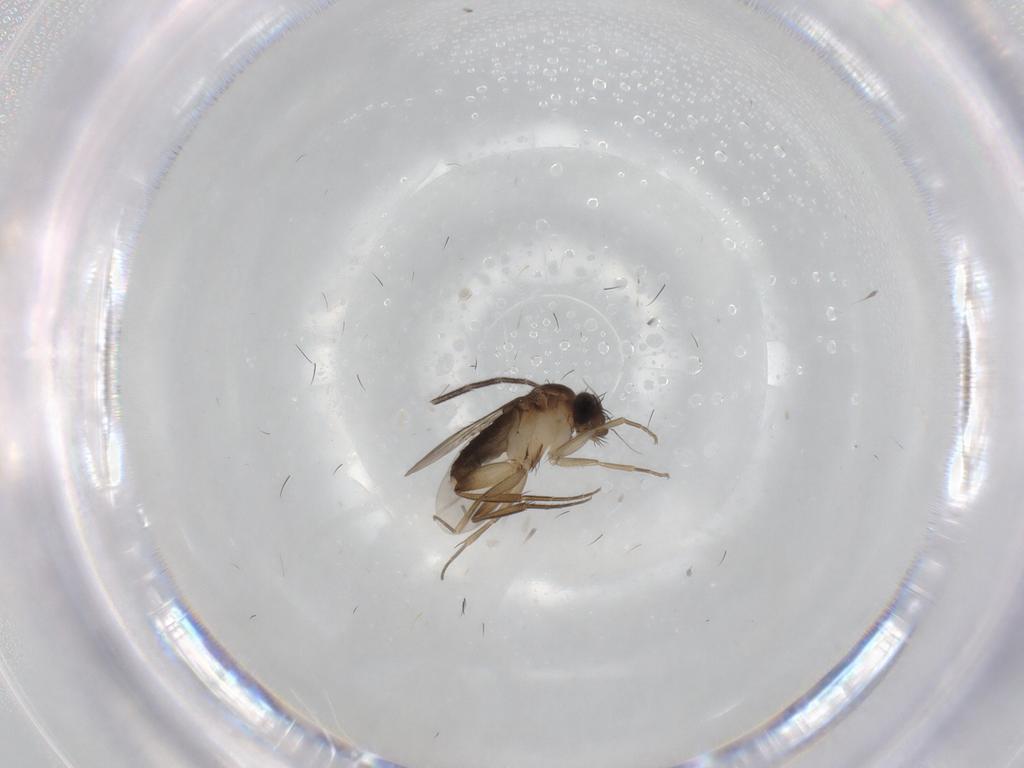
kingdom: Animalia
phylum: Arthropoda
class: Insecta
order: Diptera
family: Phoridae
